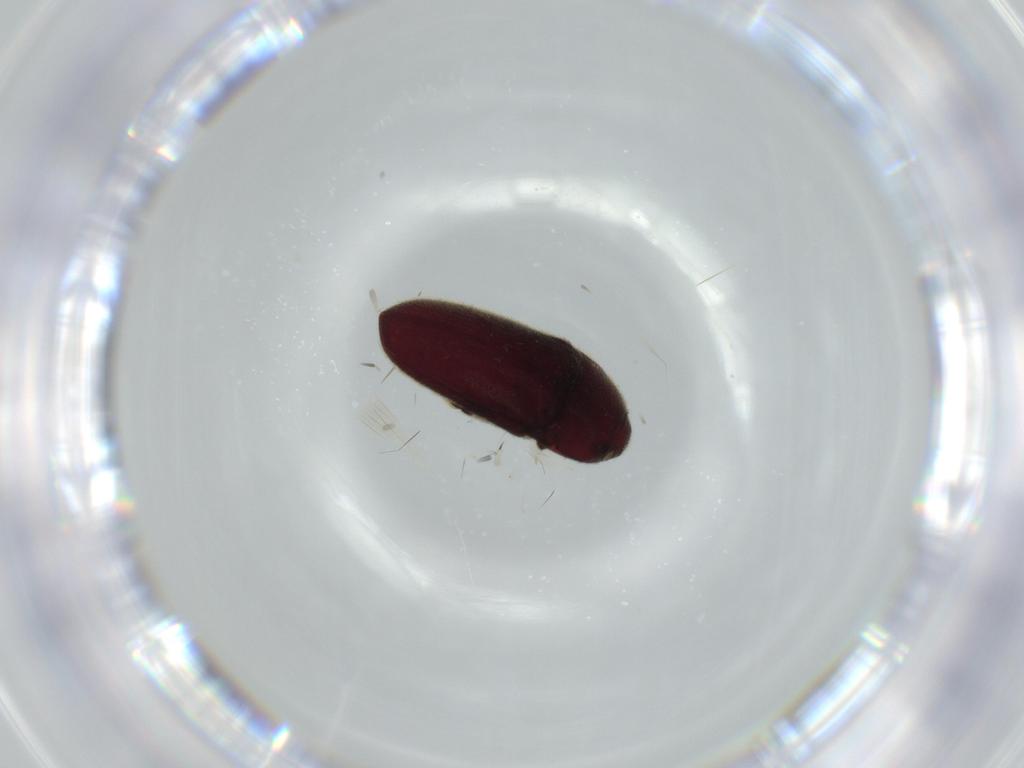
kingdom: Animalia
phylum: Arthropoda
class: Insecta
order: Coleoptera
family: Throscidae
